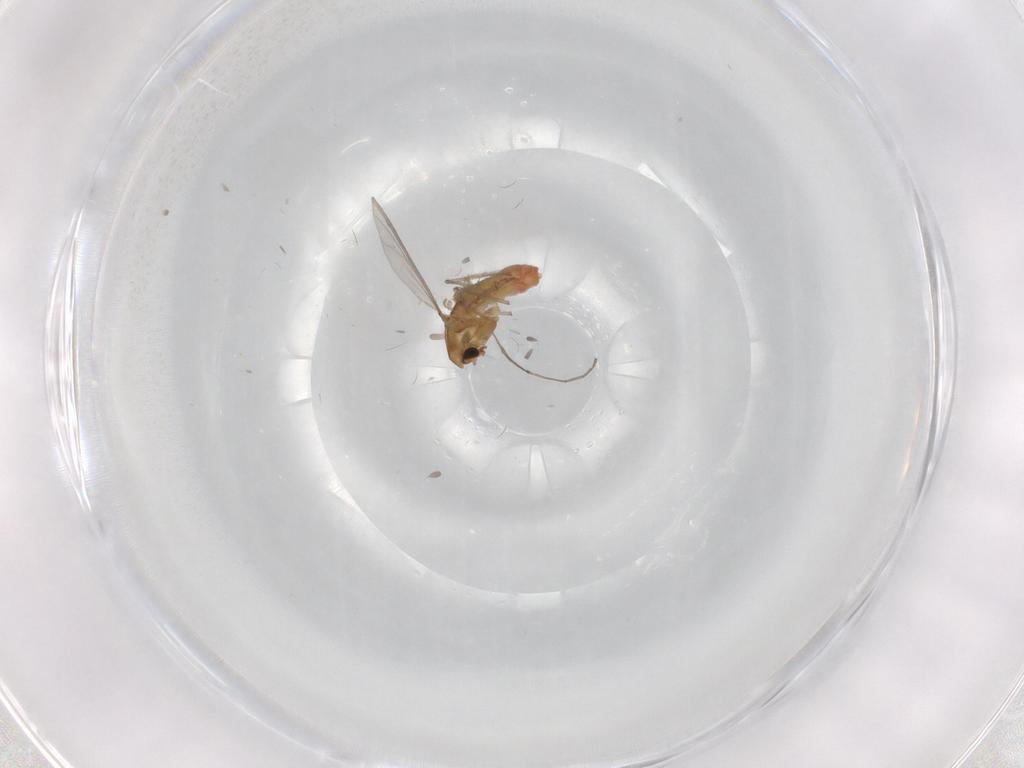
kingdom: Animalia
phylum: Arthropoda
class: Insecta
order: Diptera
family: Chironomidae
